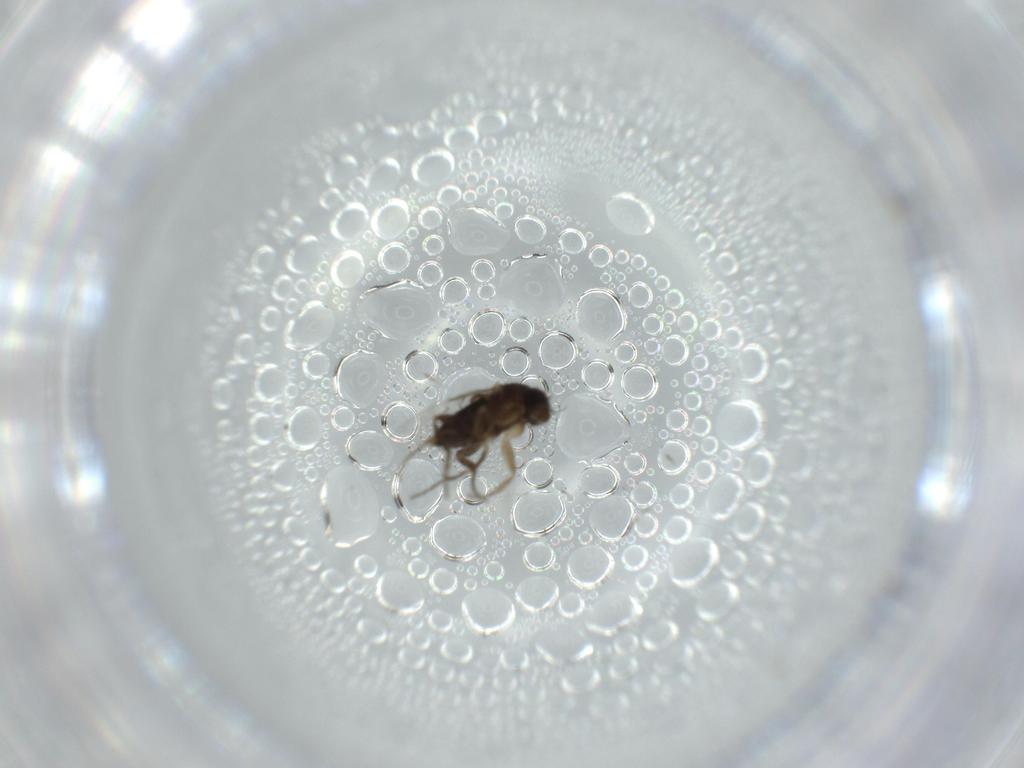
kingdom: Animalia
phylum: Arthropoda
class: Insecta
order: Diptera
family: Phoridae
